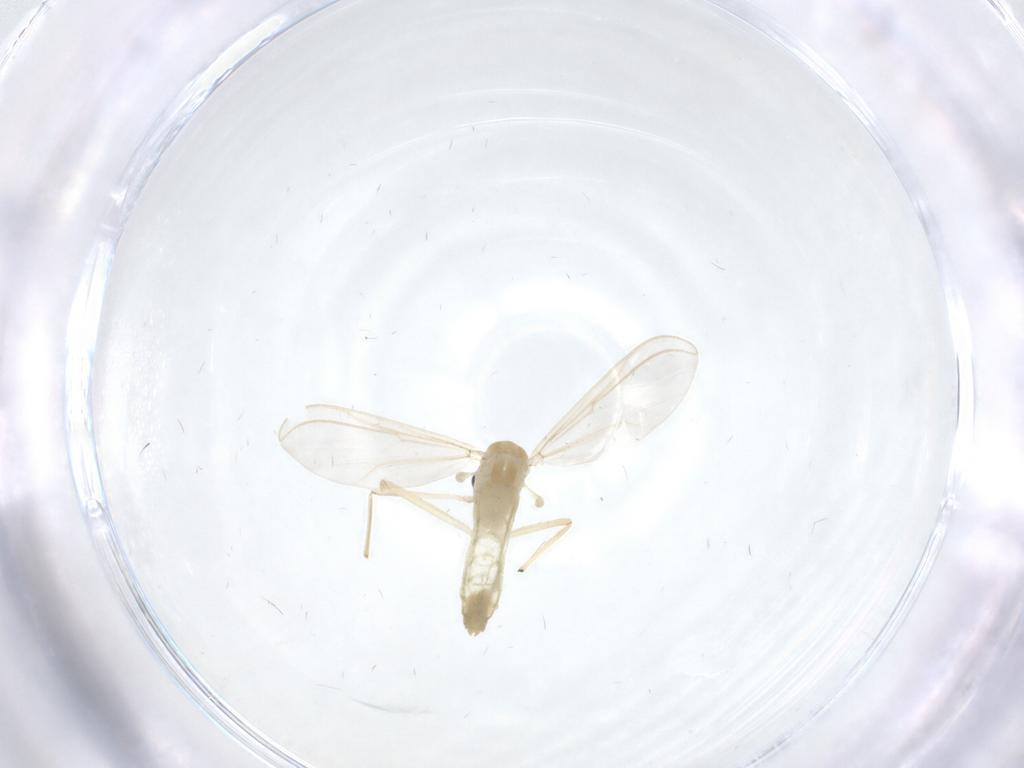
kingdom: Animalia
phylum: Arthropoda
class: Insecta
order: Diptera
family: Chironomidae
